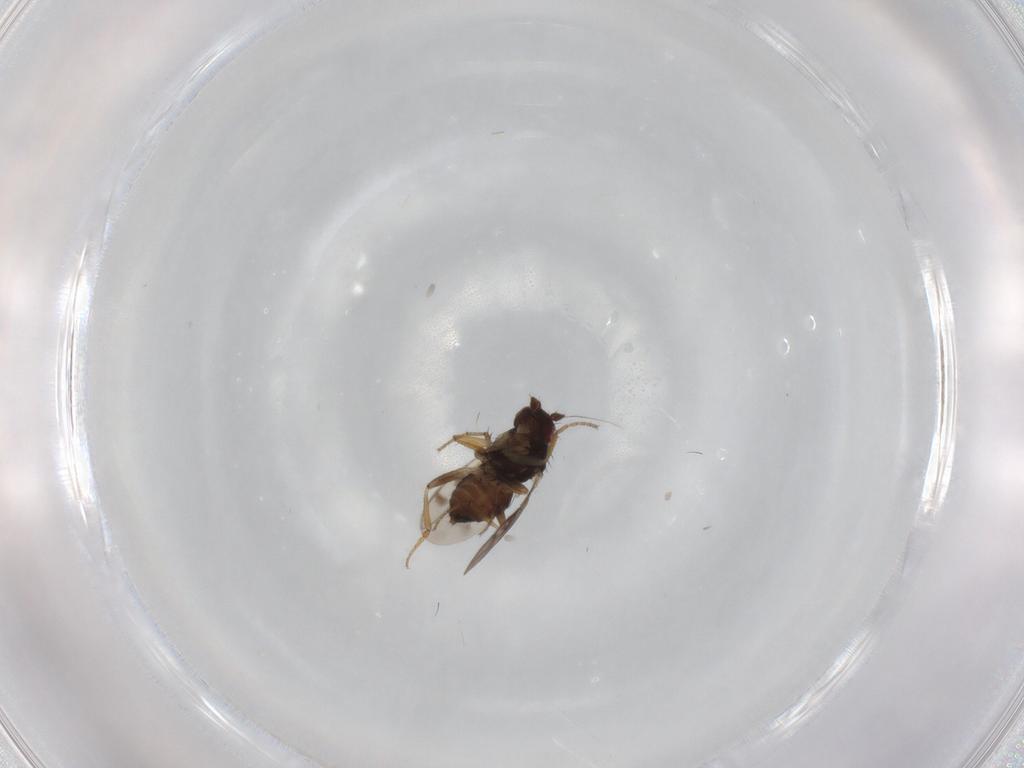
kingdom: Animalia
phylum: Arthropoda
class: Insecta
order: Diptera
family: Sphaeroceridae
